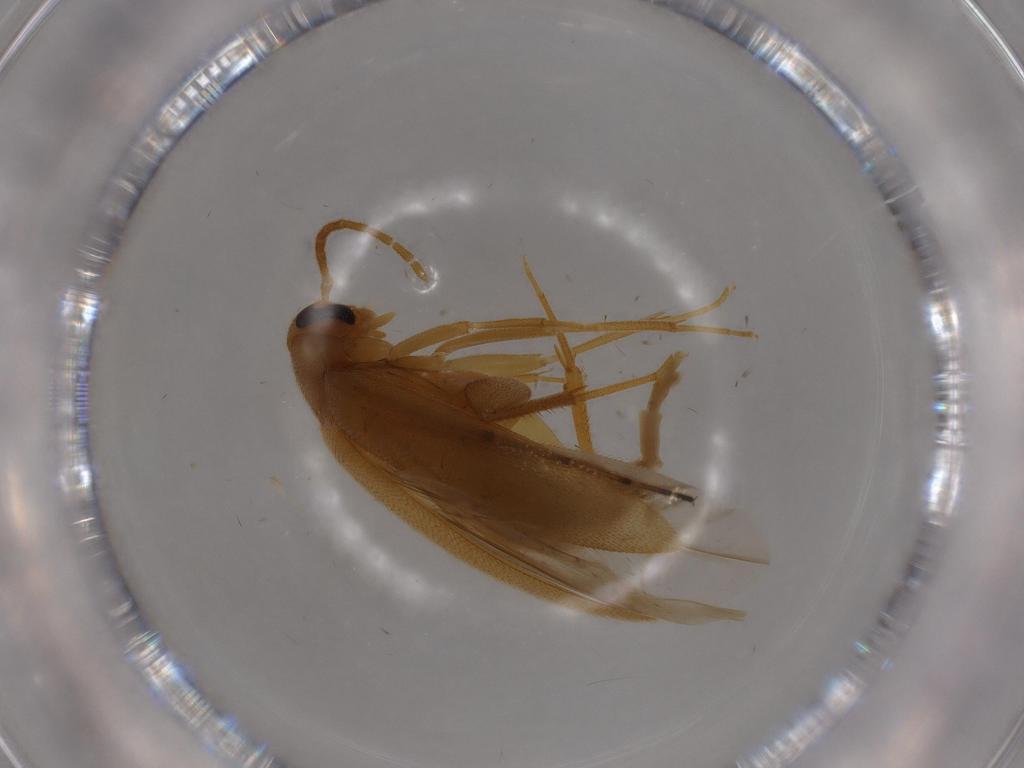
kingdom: Animalia
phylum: Arthropoda
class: Insecta
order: Coleoptera
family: Scraptiidae
